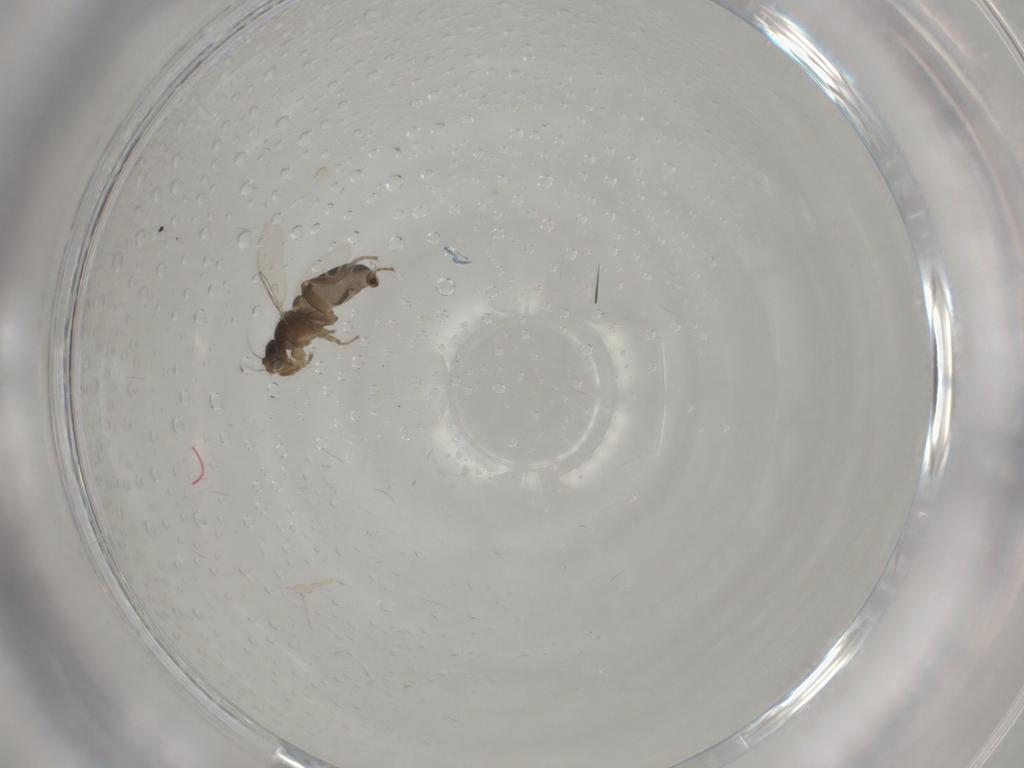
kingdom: Animalia
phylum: Arthropoda
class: Insecta
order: Diptera
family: Phoridae
